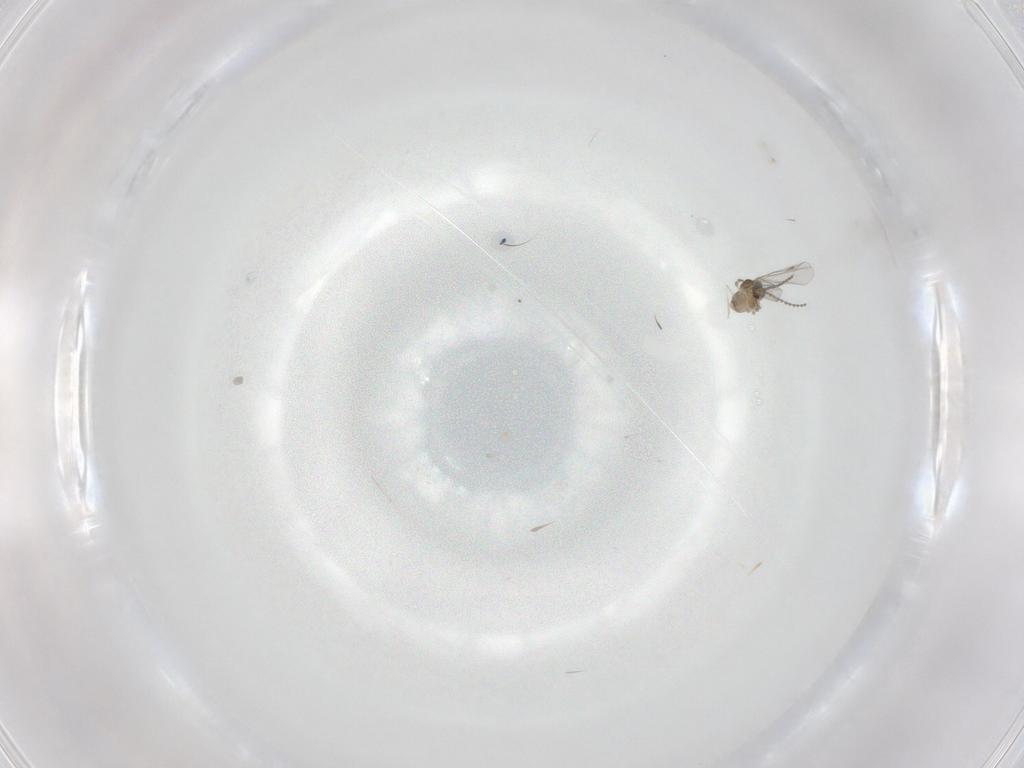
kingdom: Animalia
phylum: Arthropoda
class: Insecta
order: Diptera
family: Cecidomyiidae
